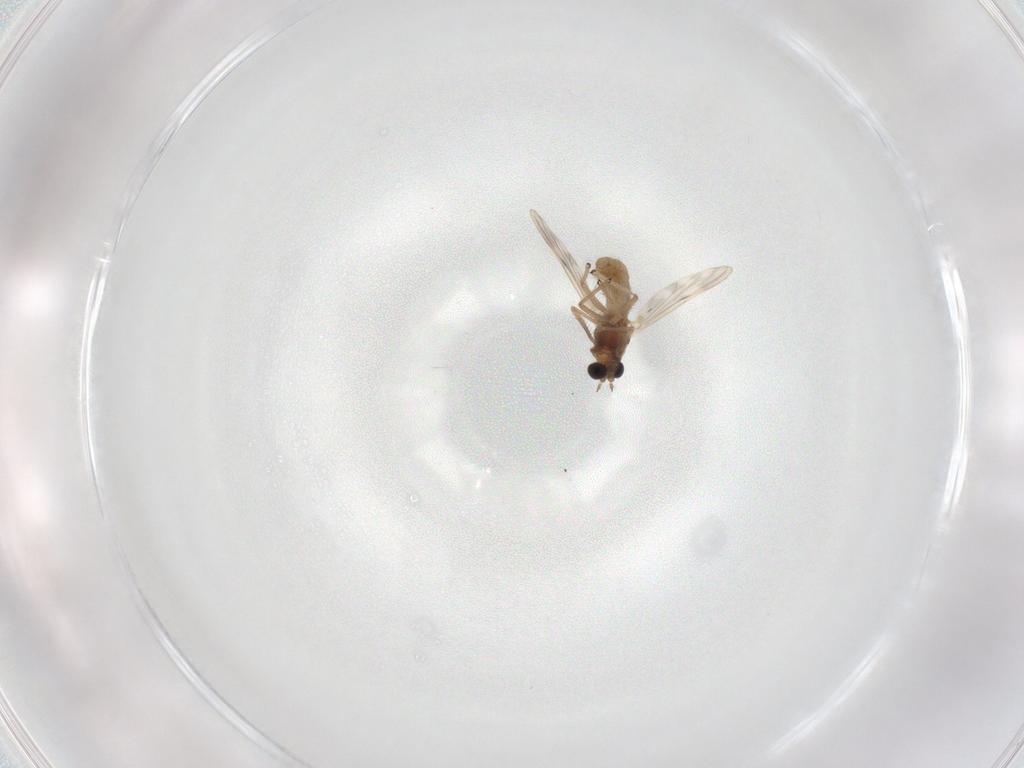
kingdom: Animalia
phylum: Arthropoda
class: Insecta
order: Diptera
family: Chironomidae
